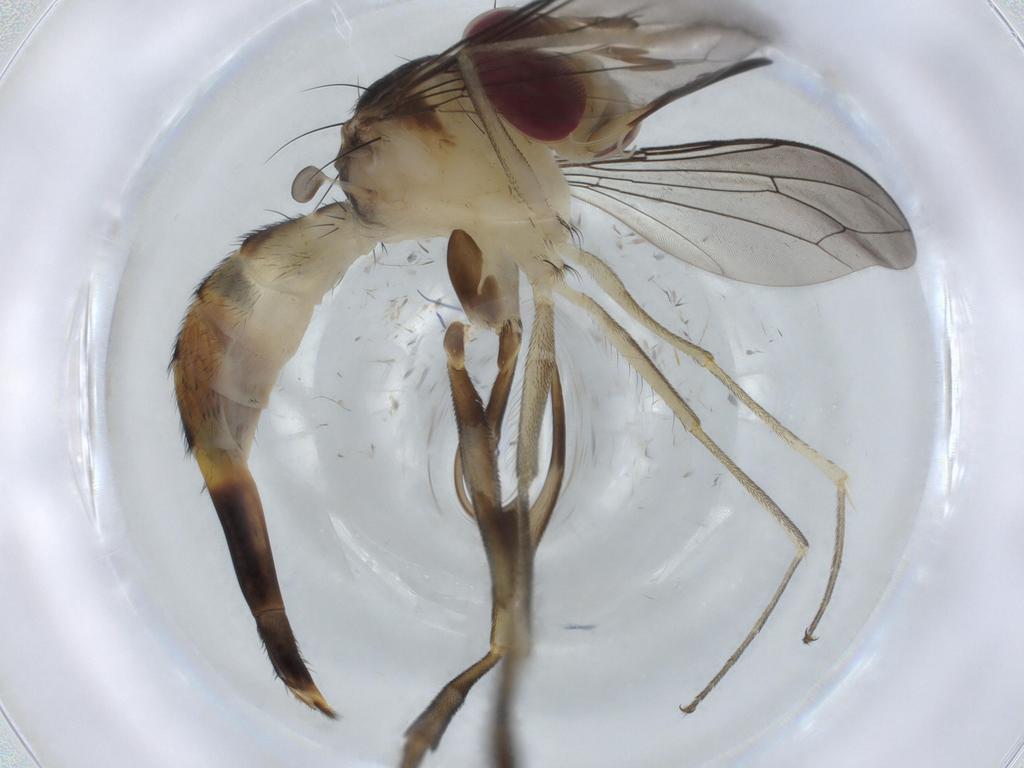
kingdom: Animalia
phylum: Arthropoda
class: Insecta
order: Diptera
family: Conopidae
